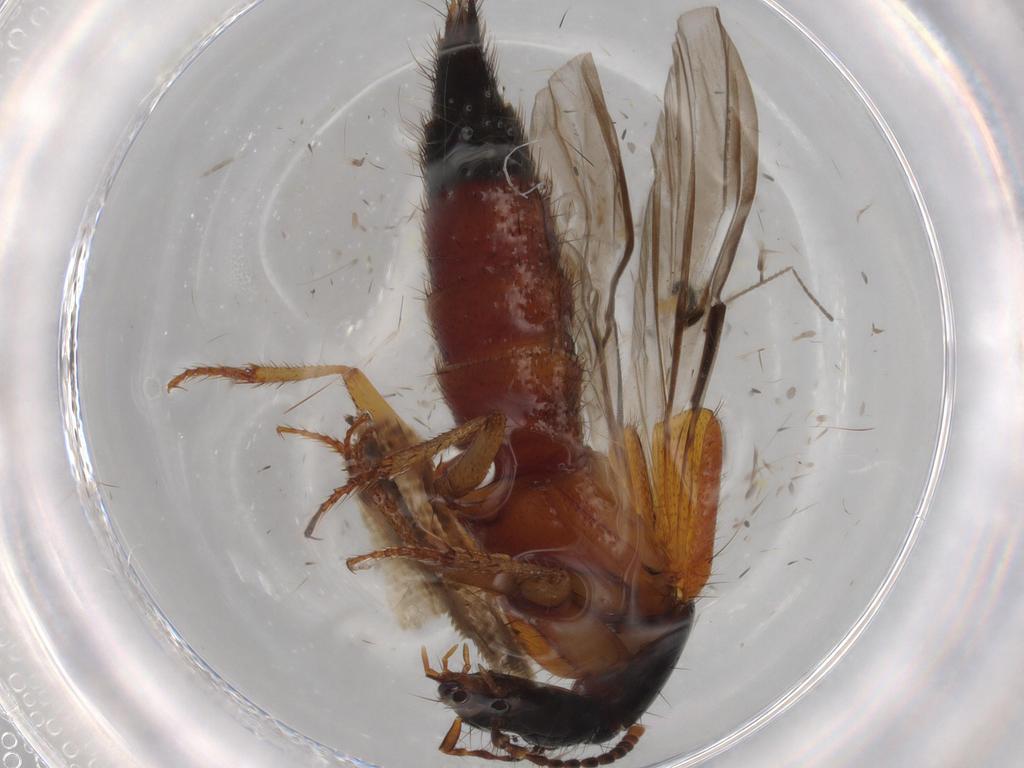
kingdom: Animalia
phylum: Arthropoda
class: Insecta
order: Coleoptera
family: Staphylinidae
